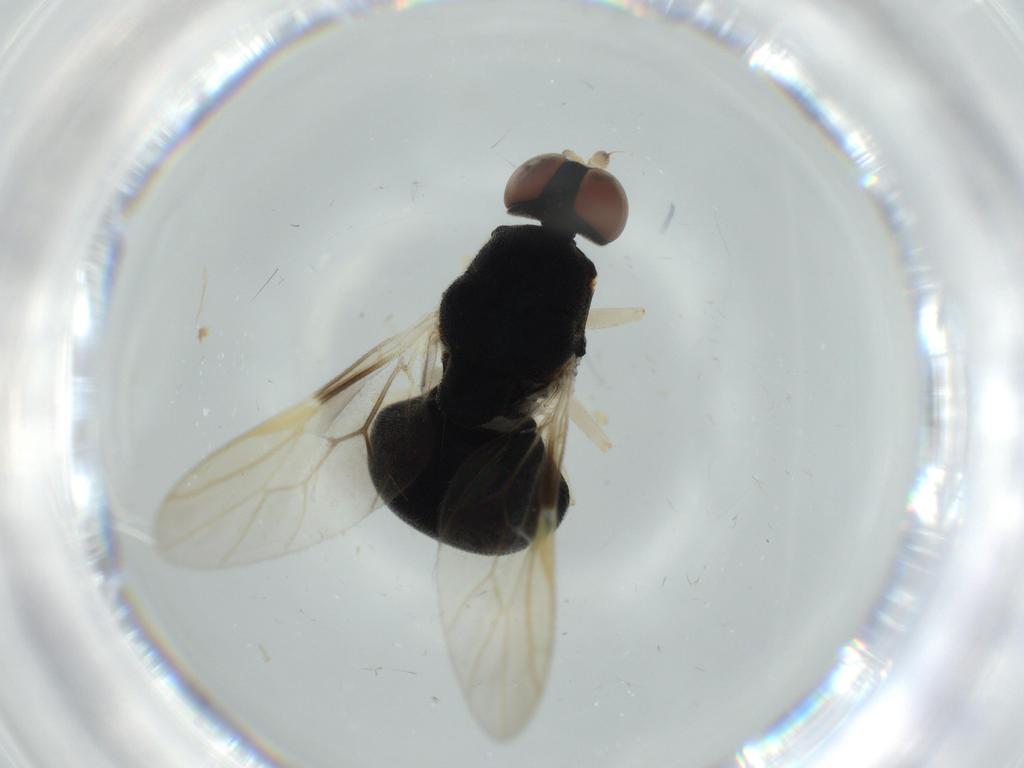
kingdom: Animalia
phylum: Arthropoda
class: Insecta
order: Diptera
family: Stratiomyidae
